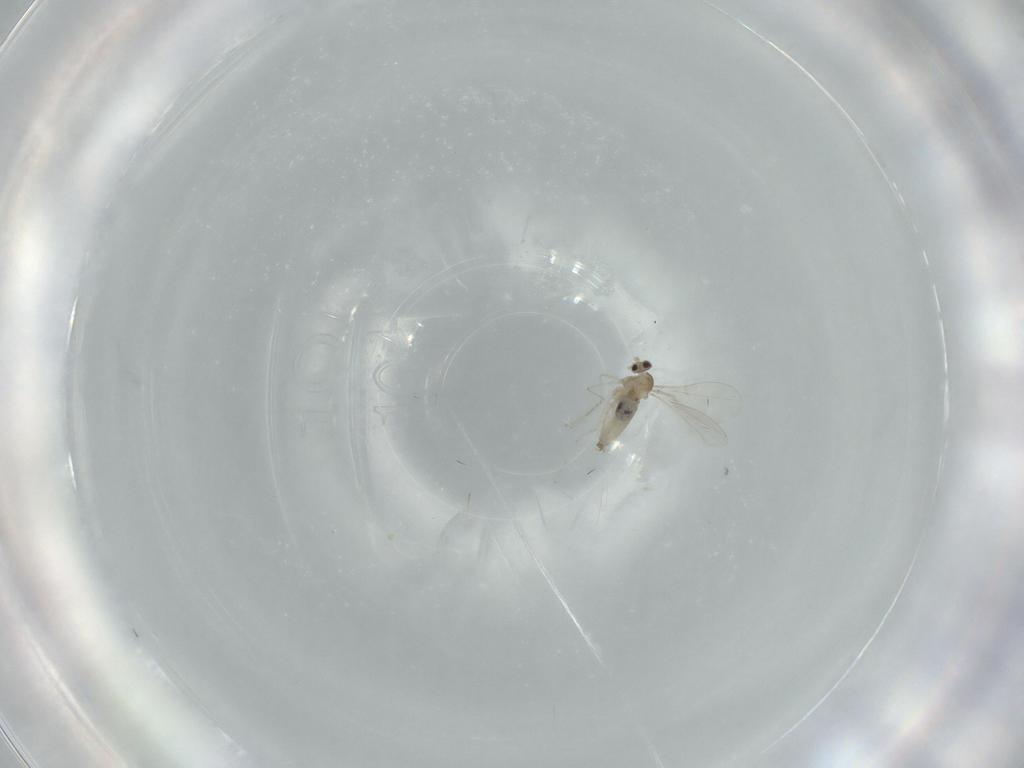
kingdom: Animalia
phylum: Arthropoda
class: Insecta
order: Diptera
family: Cecidomyiidae
